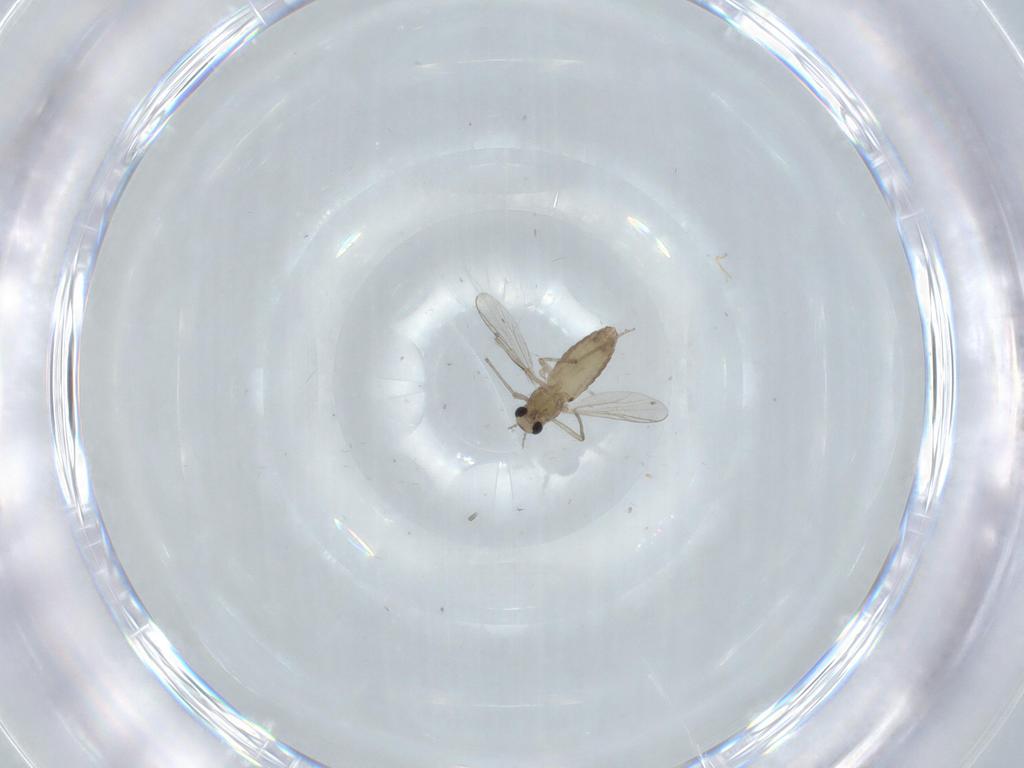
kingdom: Animalia
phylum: Arthropoda
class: Insecta
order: Diptera
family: Chironomidae
